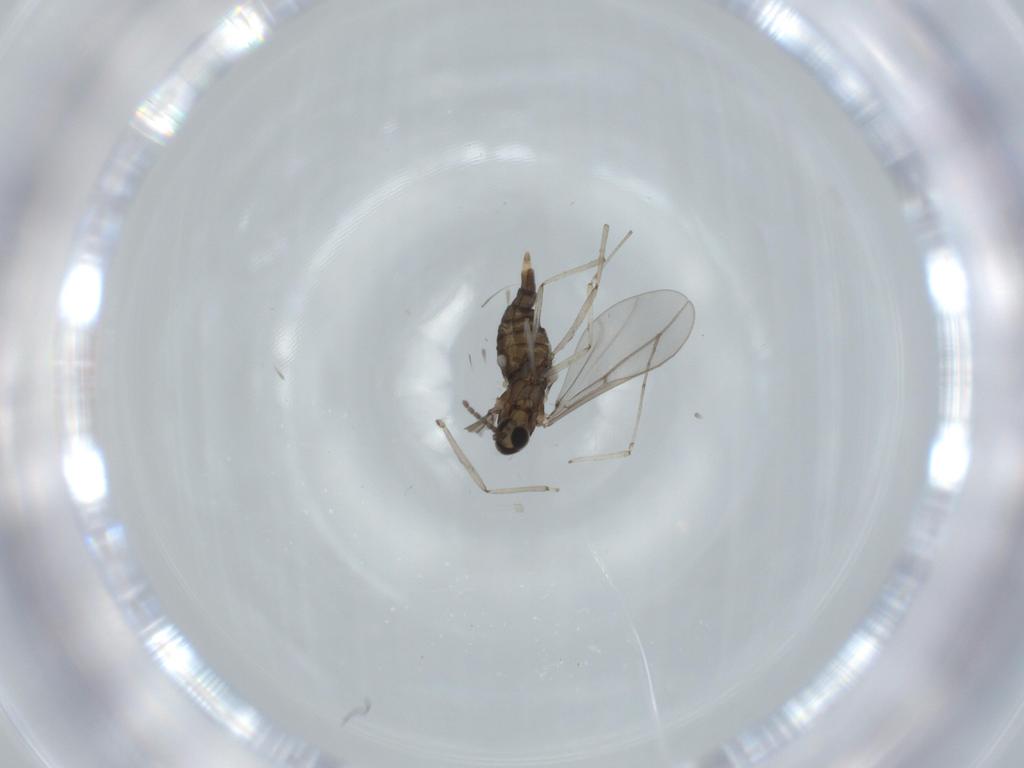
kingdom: Animalia
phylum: Arthropoda
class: Insecta
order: Diptera
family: Cecidomyiidae
